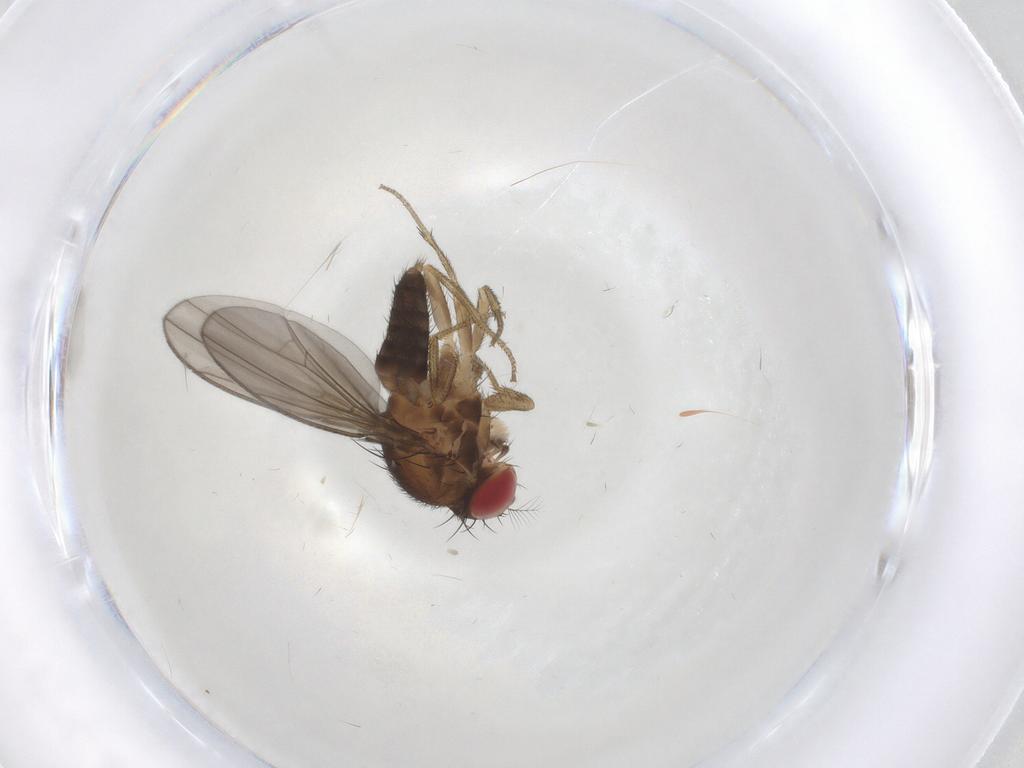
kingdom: Animalia
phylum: Arthropoda
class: Insecta
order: Diptera
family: Drosophilidae
